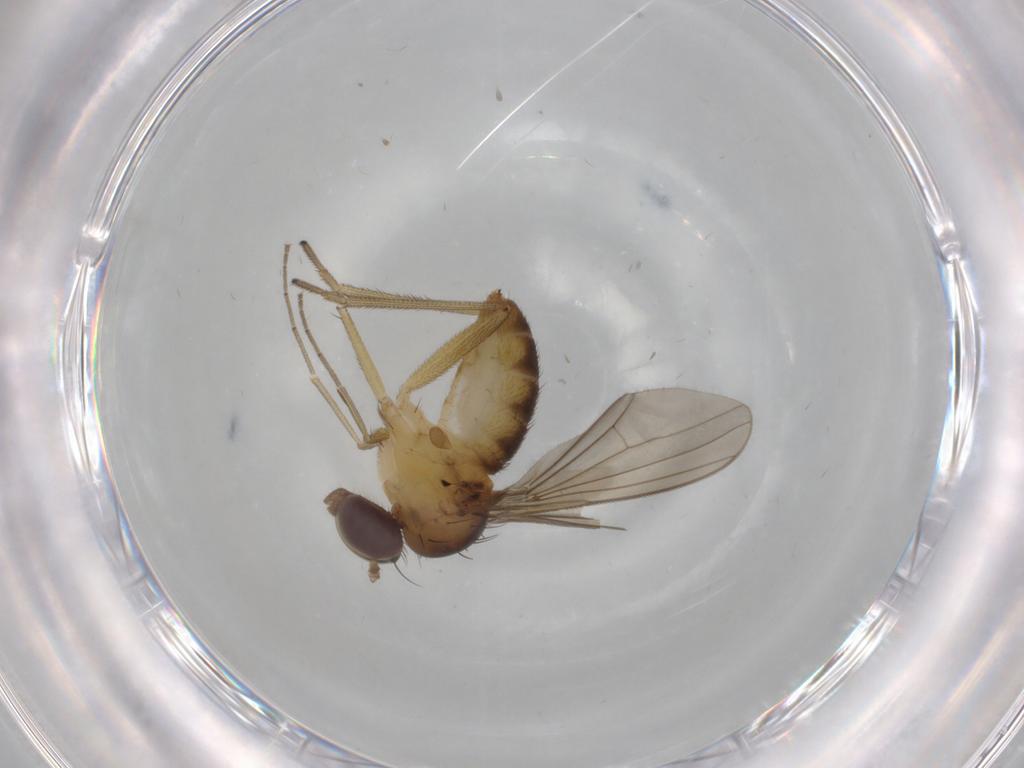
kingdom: Animalia
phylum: Arthropoda
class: Insecta
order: Diptera
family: Dolichopodidae
